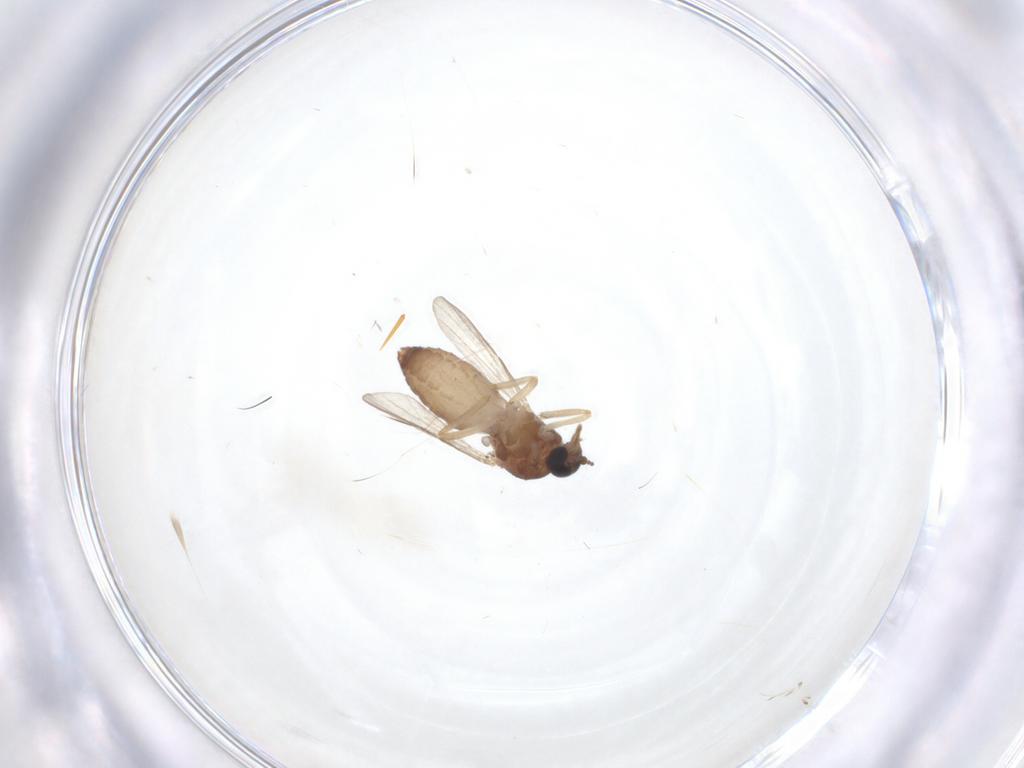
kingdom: Animalia
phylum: Arthropoda
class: Insecta
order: Diptera
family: Ceratopogonidae
